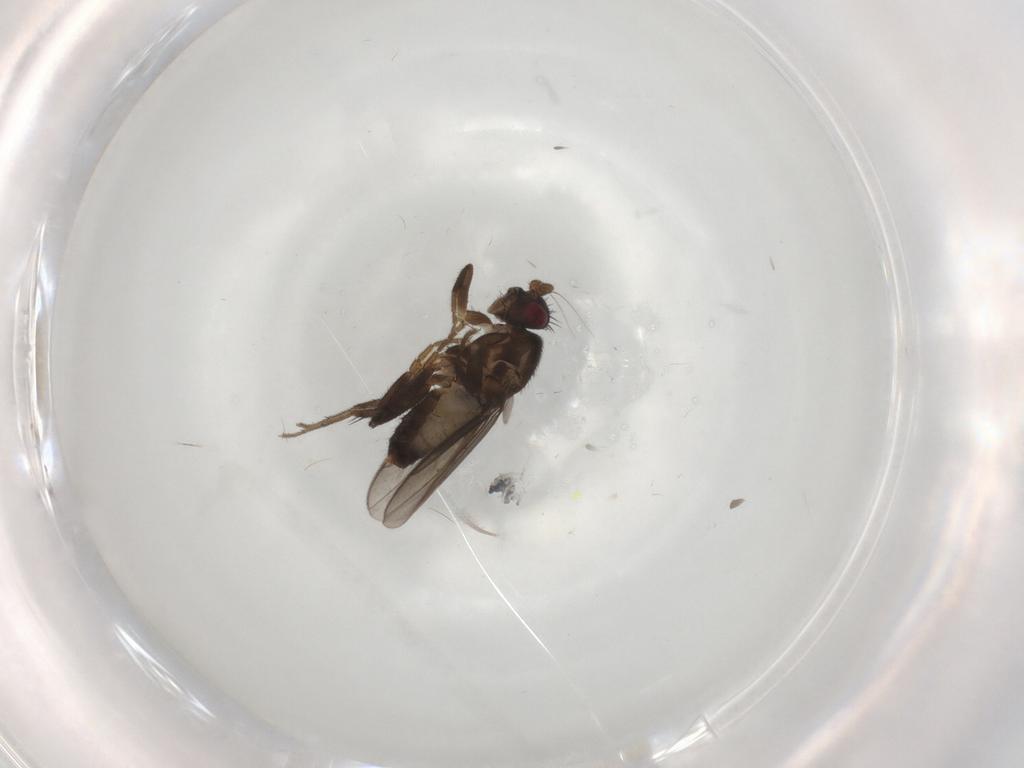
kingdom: Animalia
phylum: Arthropoda
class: Insecta
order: Diptera
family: Sphaeroceridae
